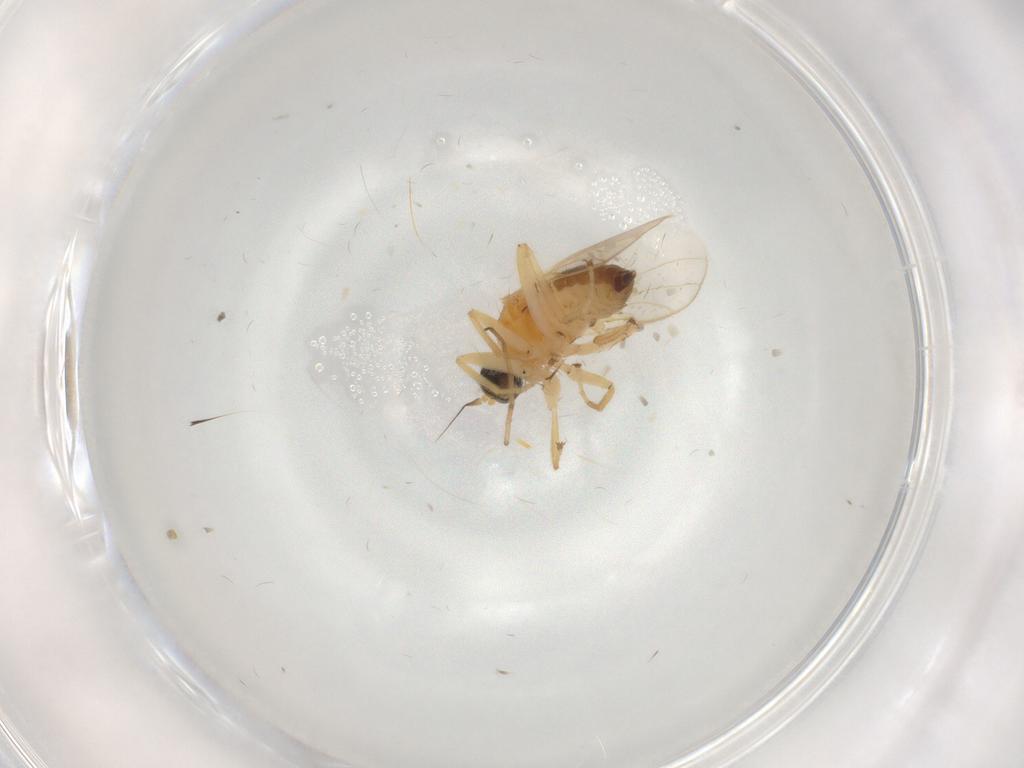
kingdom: Animalia
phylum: Arthropoda
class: Insecta
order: Diptera
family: Hybotidae
